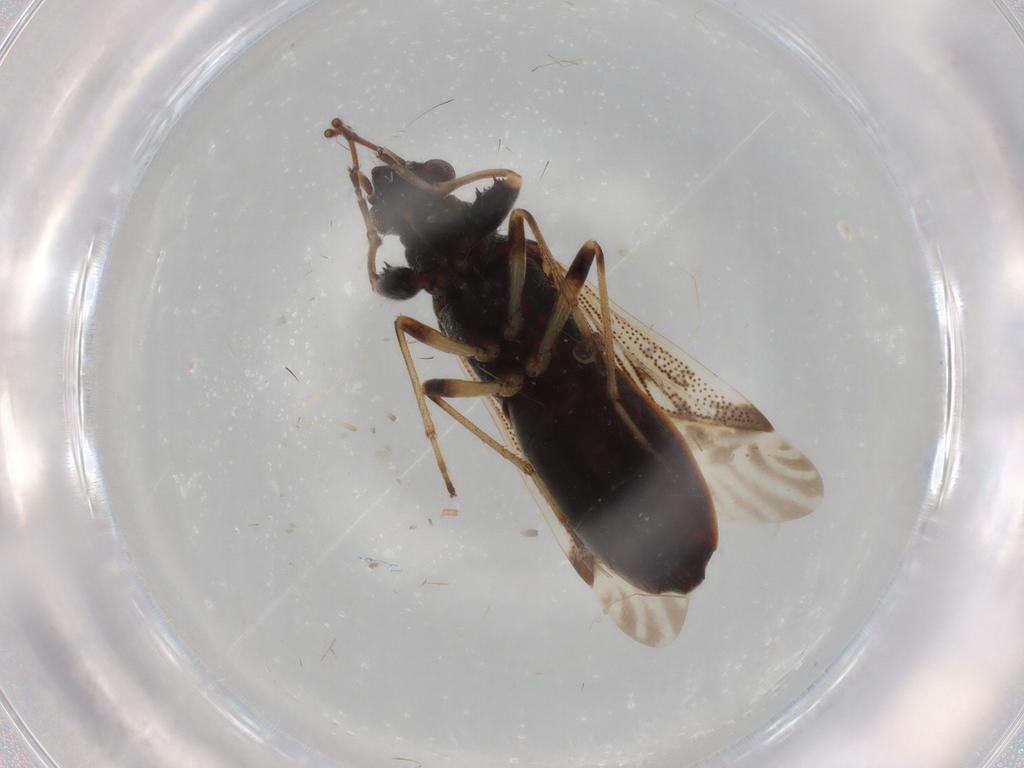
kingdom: Animalia
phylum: Arthropoda
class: Insecta
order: Hemiptera
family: Rhyparochromidae
